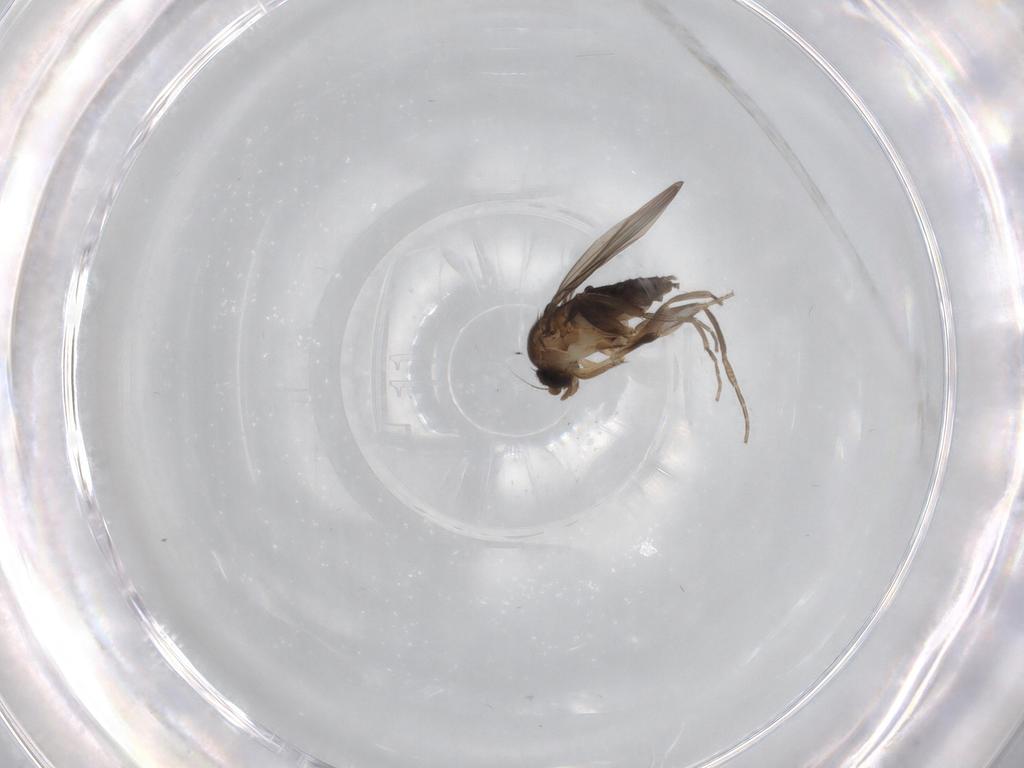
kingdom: Animalia
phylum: Arthropoda
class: Insecta
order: Diptera
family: Cecidomyiidae
